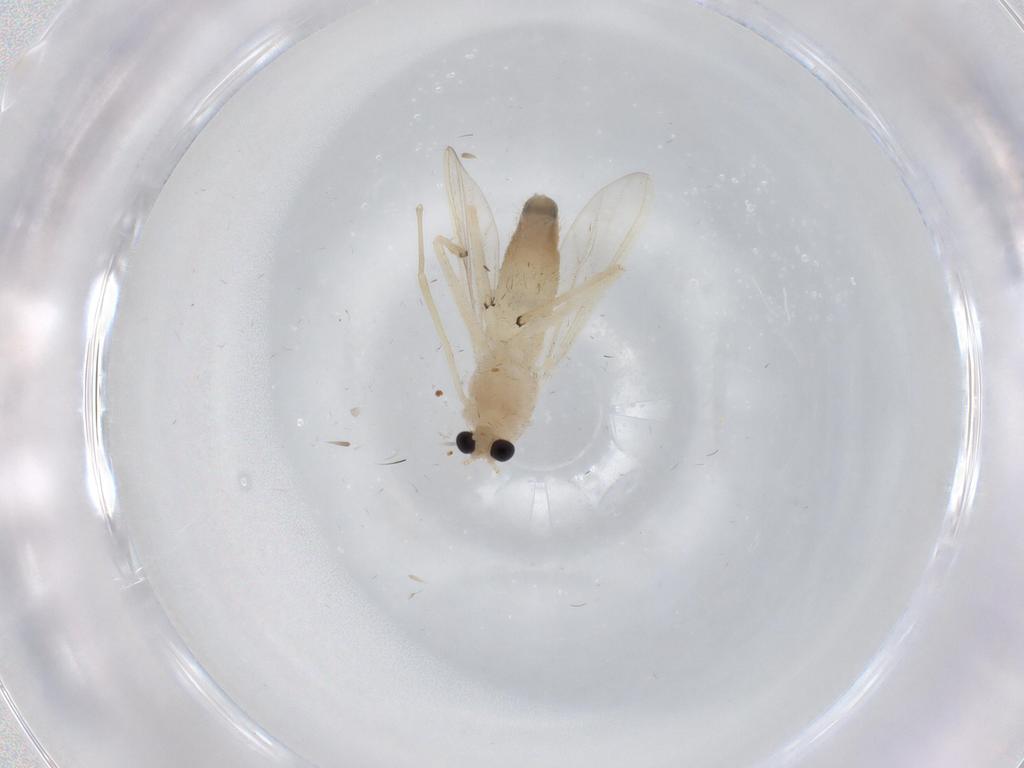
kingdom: Animalia
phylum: Arthropoda
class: Insecta
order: Diptera
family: Chironomidae
